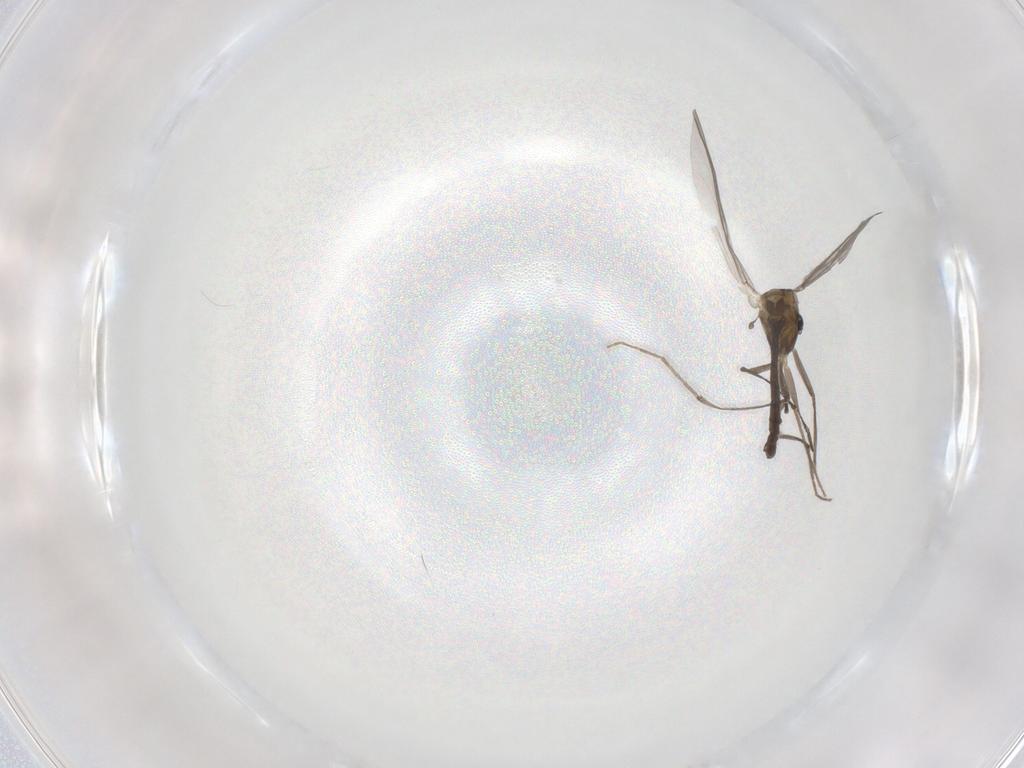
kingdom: Animalia
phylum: Arthropoda
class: Insecta
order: Diptera
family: Chironomidae
